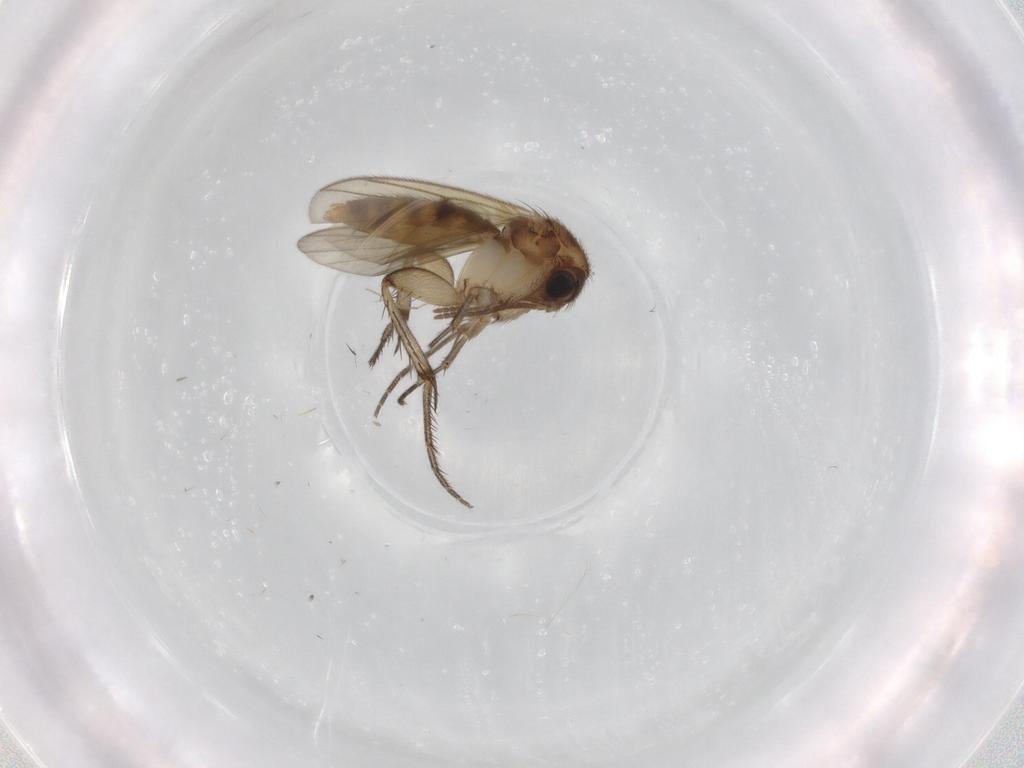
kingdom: Animalia
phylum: Arthropoda
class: Insecta
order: Diptera
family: Mycetophilidae
